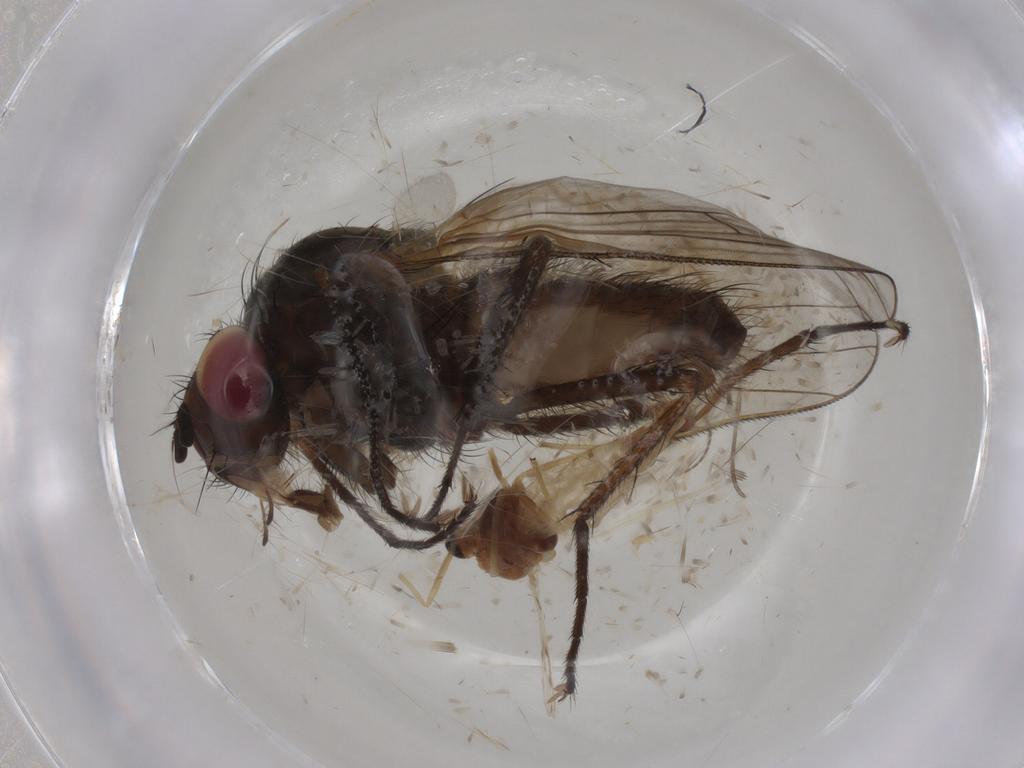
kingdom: Animalia
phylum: Arthropoda
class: Insecta
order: Diptera
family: Anthomyiidae
